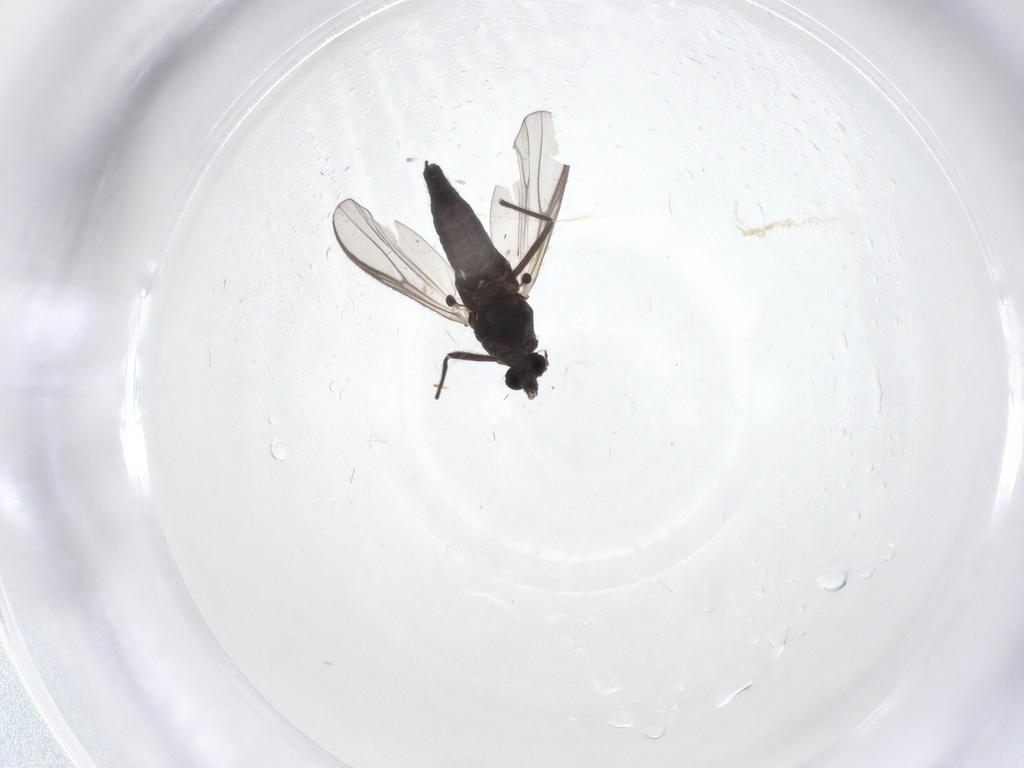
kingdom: Animalia
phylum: Arthropoda
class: Insecta
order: Diptera
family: Chironomidae
